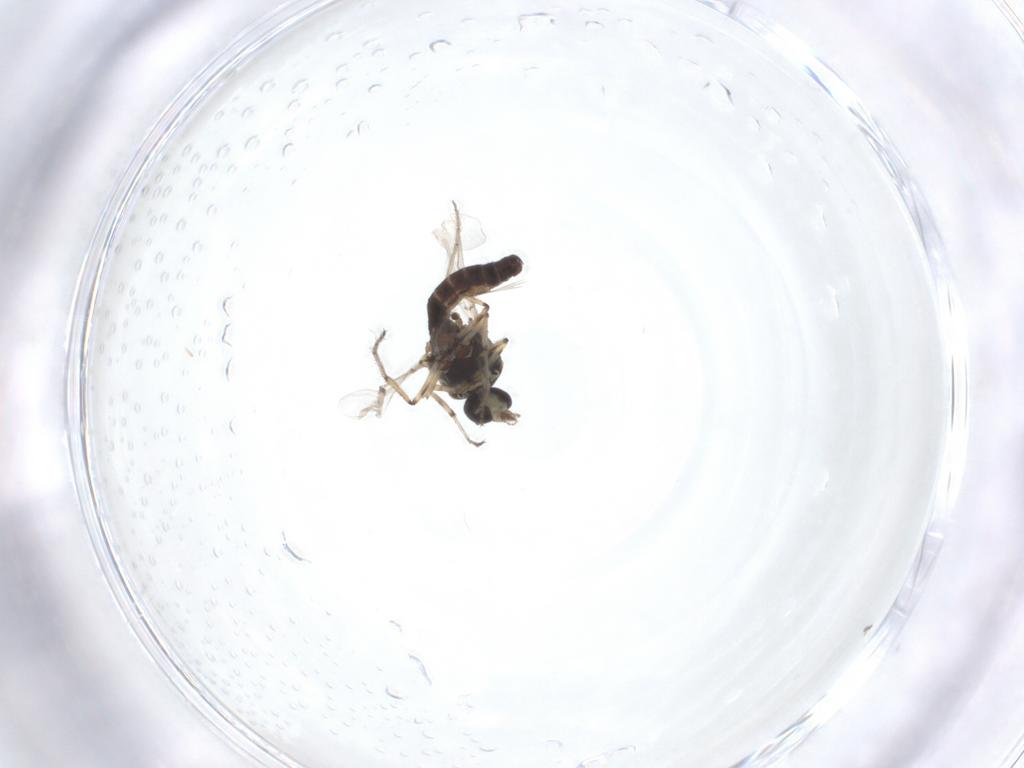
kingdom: Animalia
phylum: Arthropoda
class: Insecta
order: Diptera
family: Ceratopogonidae
